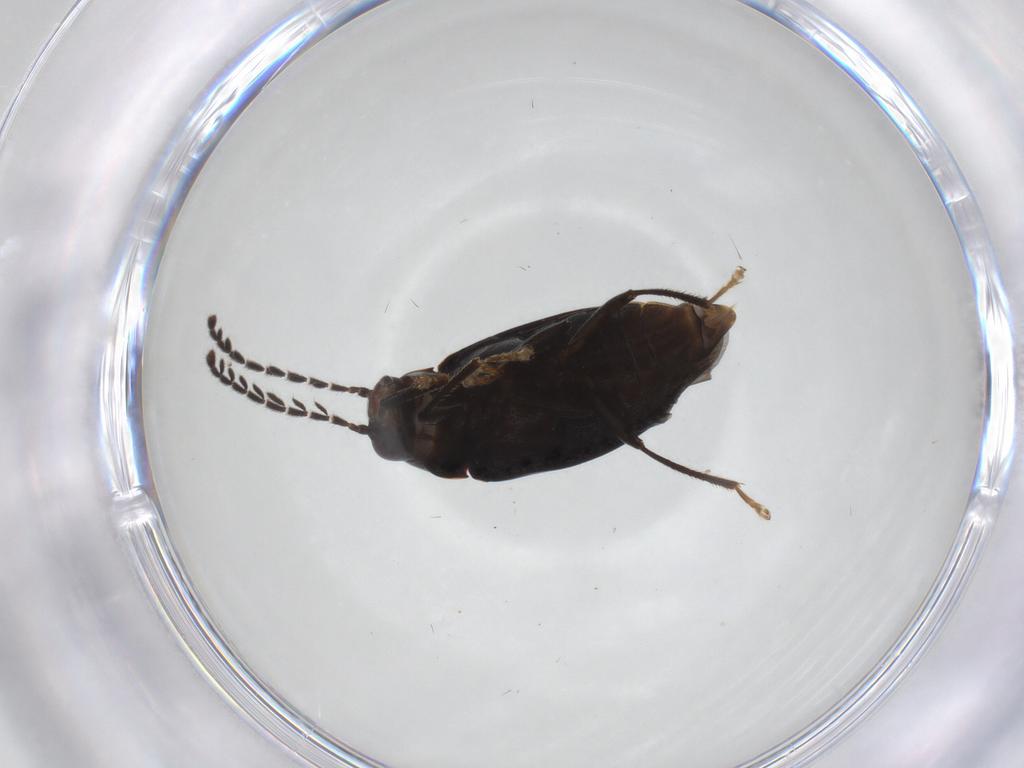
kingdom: Animalia
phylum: Arthropoda
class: Insecta
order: Coleoptera
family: Ptilodactylidae
